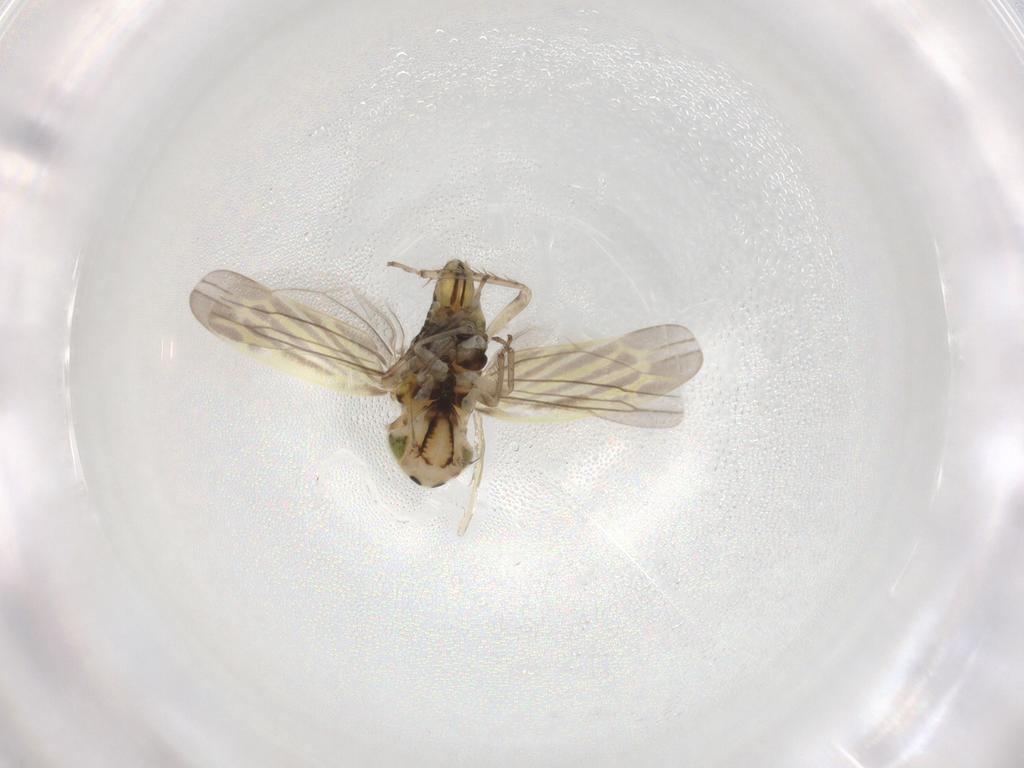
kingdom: Animalia
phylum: Arthropoda
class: Insecta
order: Hemiptera
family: Cicadellidae
